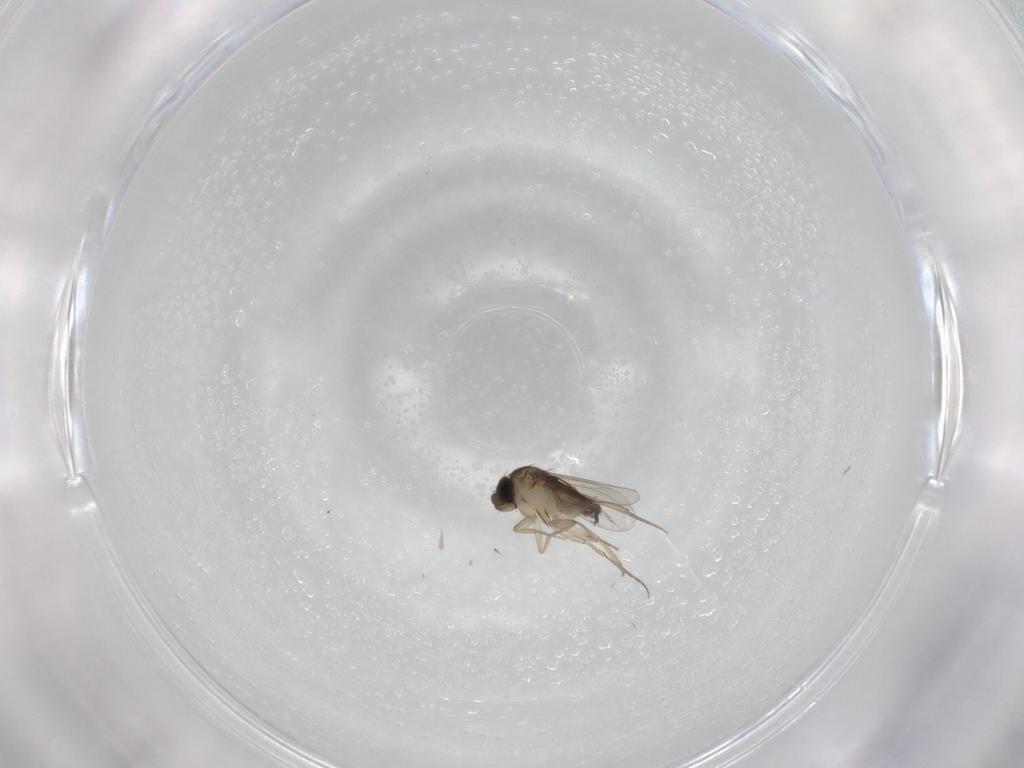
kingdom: Animalia
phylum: Arthropoda
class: Insecta
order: Diptera
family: Phoridae
